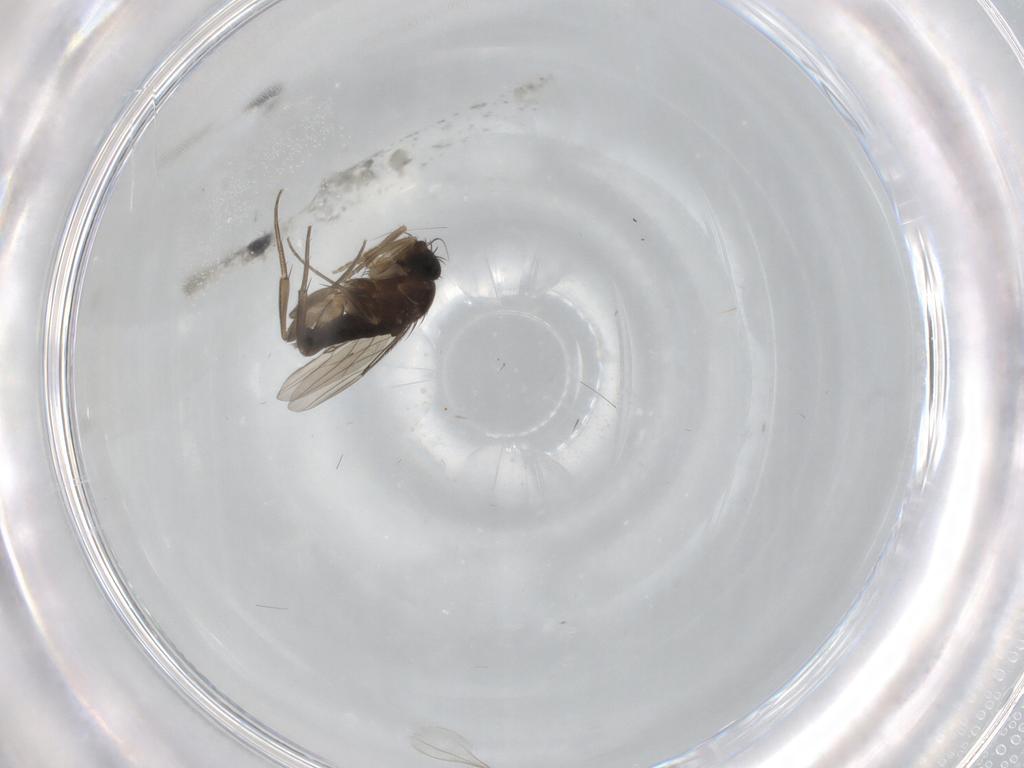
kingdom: Animalia
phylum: Arthropoda
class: Insecta
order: Diptera
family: Phoridae
